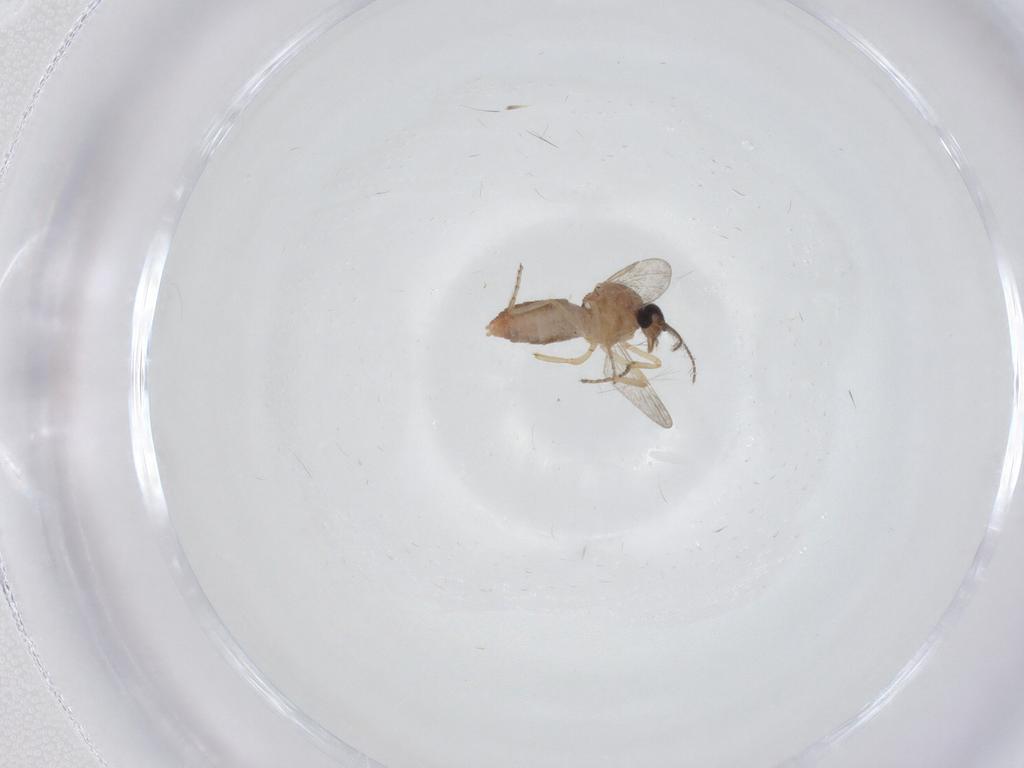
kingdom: Animalia
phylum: Arthropoda
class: Insecta
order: Diptera
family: Ceratopogonidae
